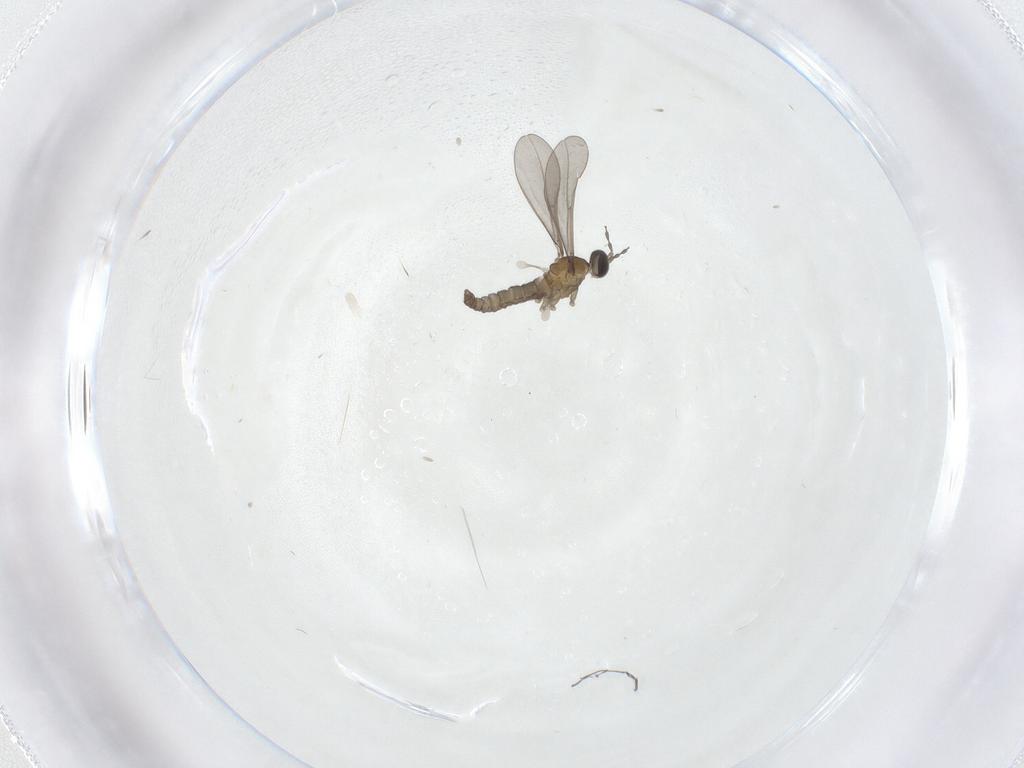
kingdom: Animalia
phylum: Arthropoda
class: Insecta
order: Diptera
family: Cecidomyiidae
